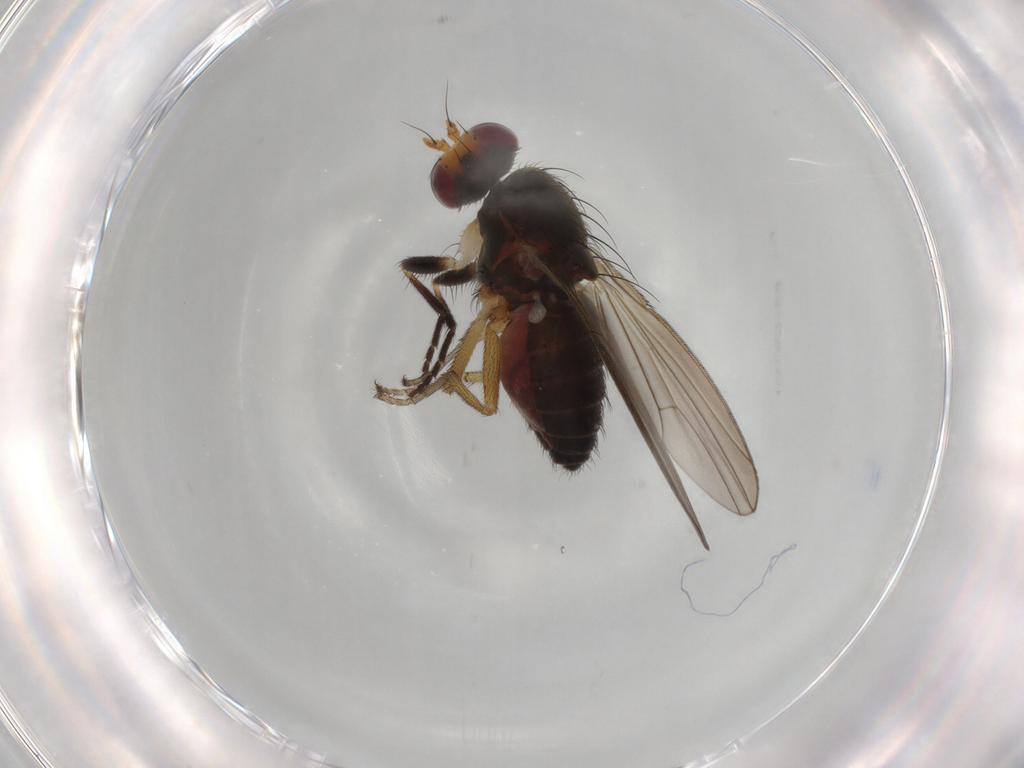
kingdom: Animalia
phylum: Arthropoda
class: Insecta
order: Diptera
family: Heleomyzidae
